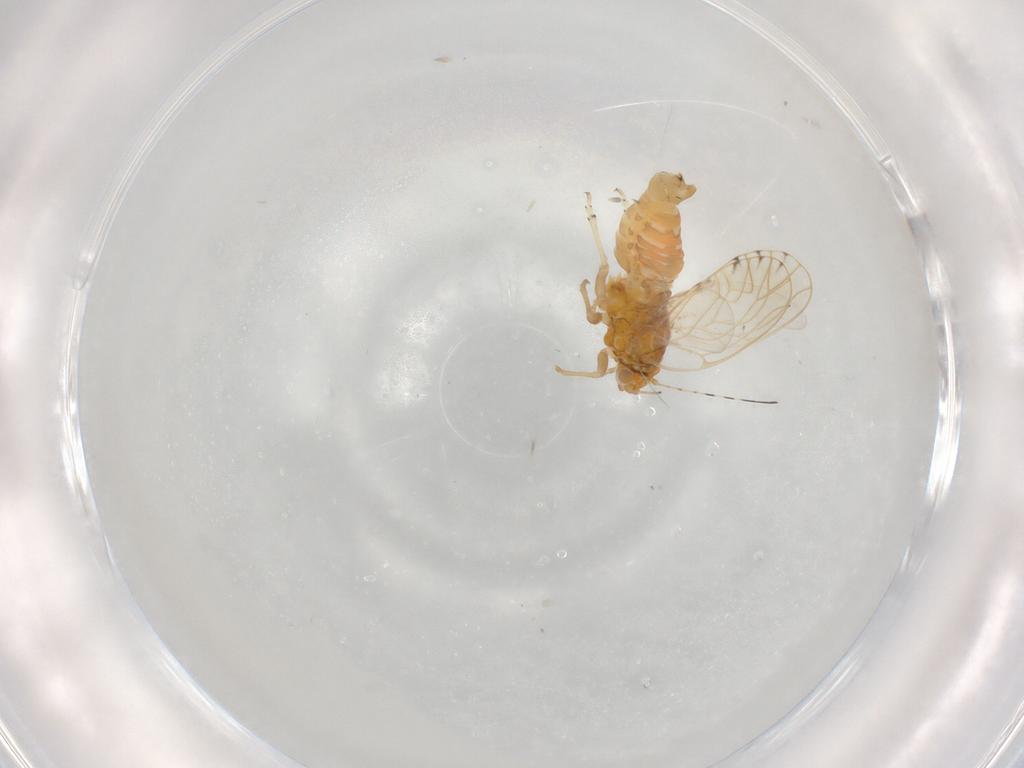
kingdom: Animalia
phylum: Arthropoda
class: Insecta
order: Hemiptera
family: Psylloidea_incertae_sedis
